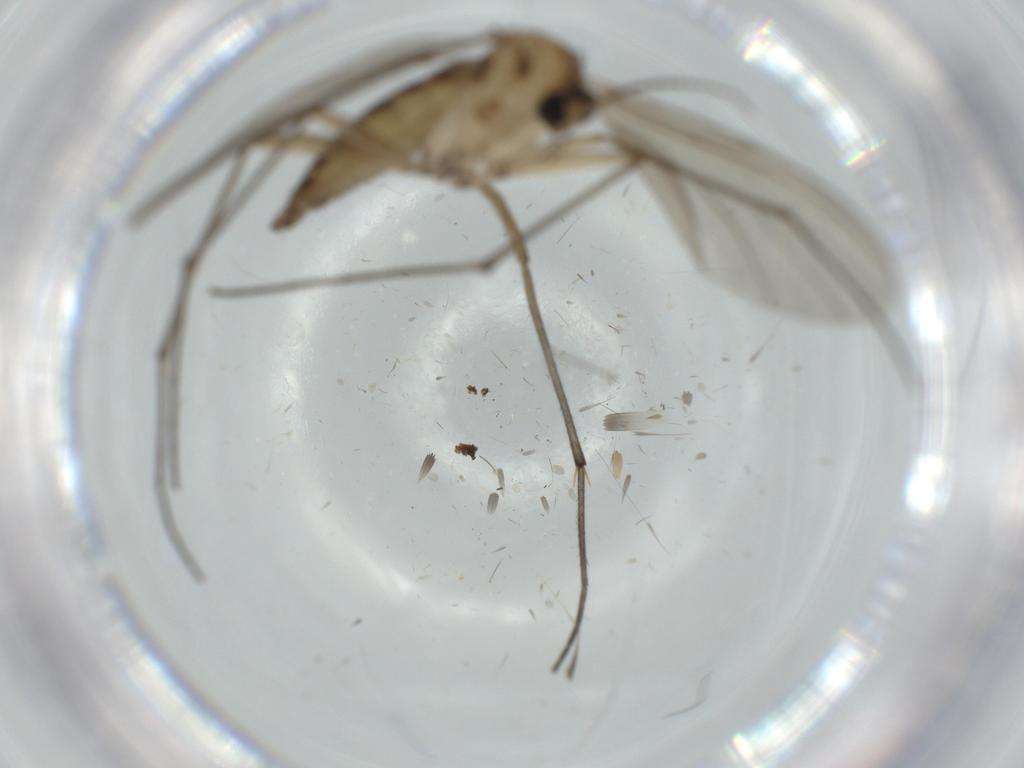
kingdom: Animalia
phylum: Arthropoda
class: Insecta
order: Diptera
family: Sciaridae
